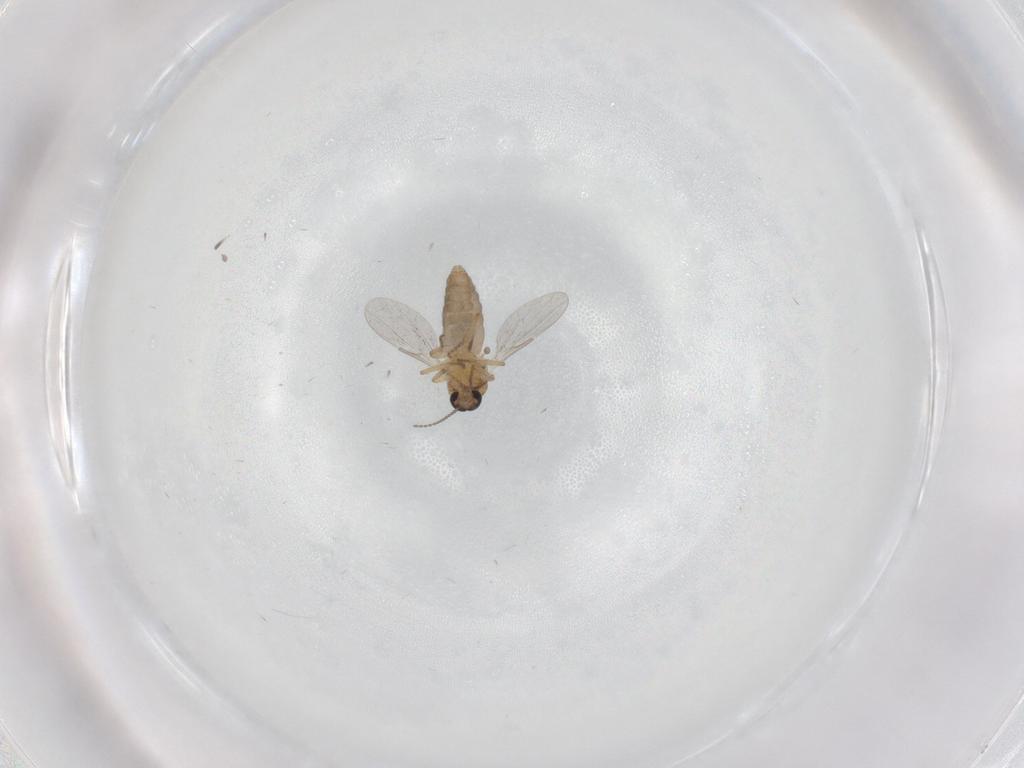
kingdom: Animalia
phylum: Arthropoda
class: Insecta
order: Diptera
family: Ceratopogonidae
